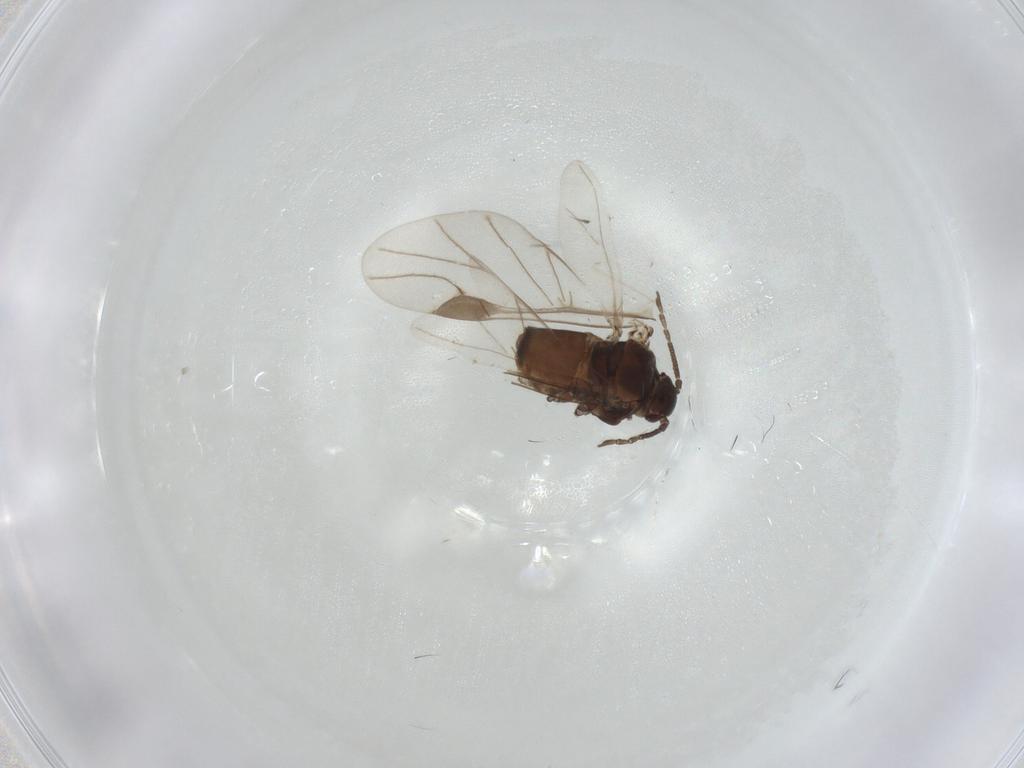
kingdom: Animalia
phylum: Arthropoda
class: Insecta
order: Hemiptera
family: Aphididae
